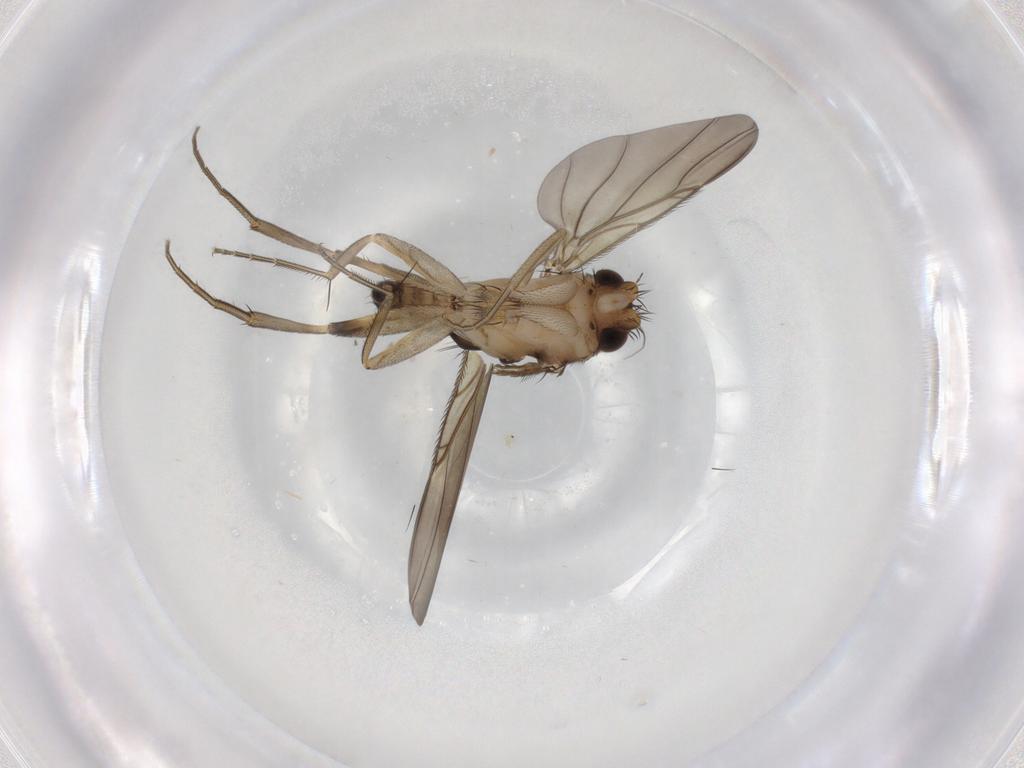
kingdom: Animalia
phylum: Arthropoda
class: Insecta
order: Diptera
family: Phoridae
